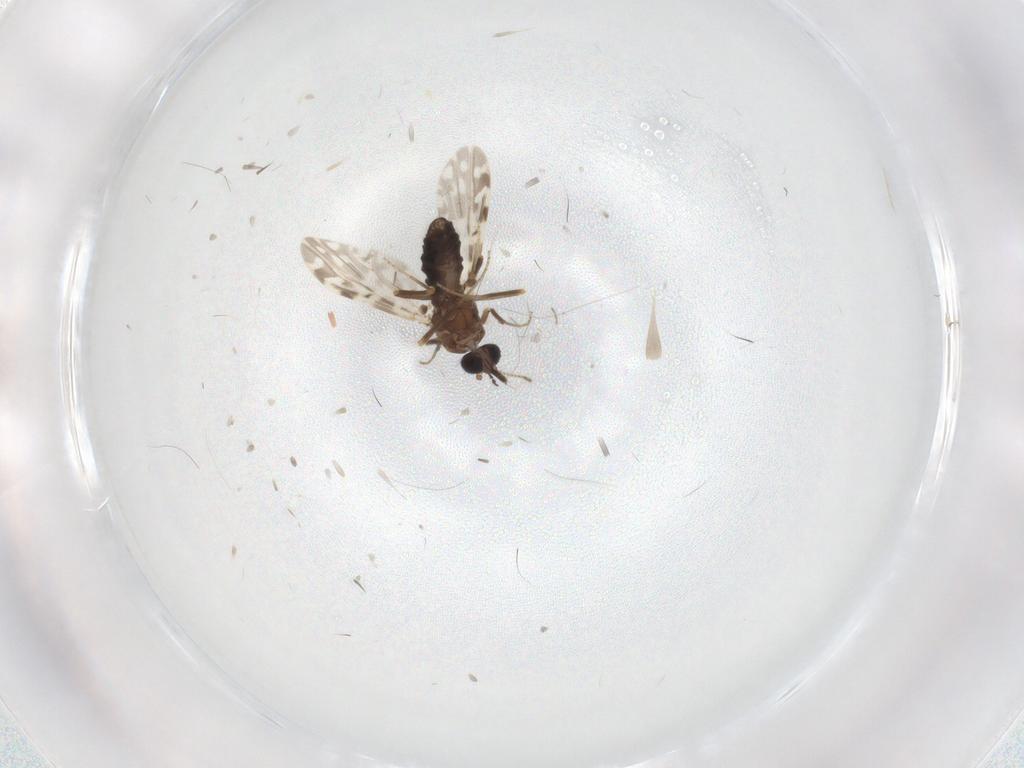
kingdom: Animalia
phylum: Arthropoda
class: Insecta
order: Diptera
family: Ceratopogonidae
